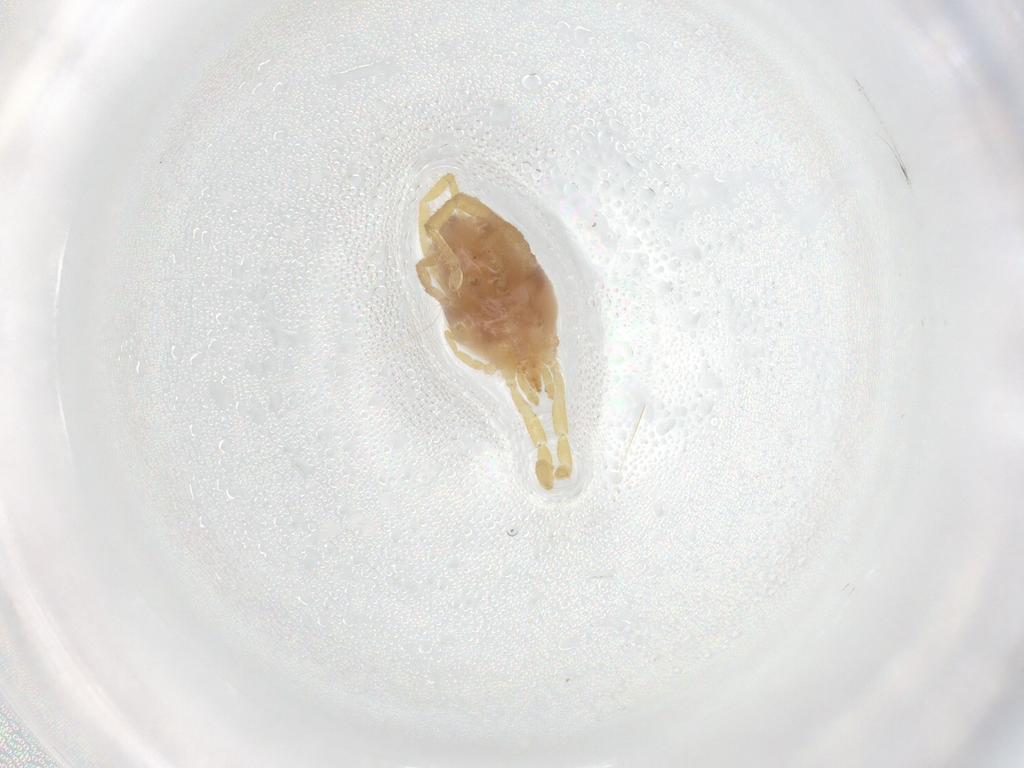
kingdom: Animalia
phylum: Arthropoda
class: Arachnida
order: Trombidiformes
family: Erythraeidae
